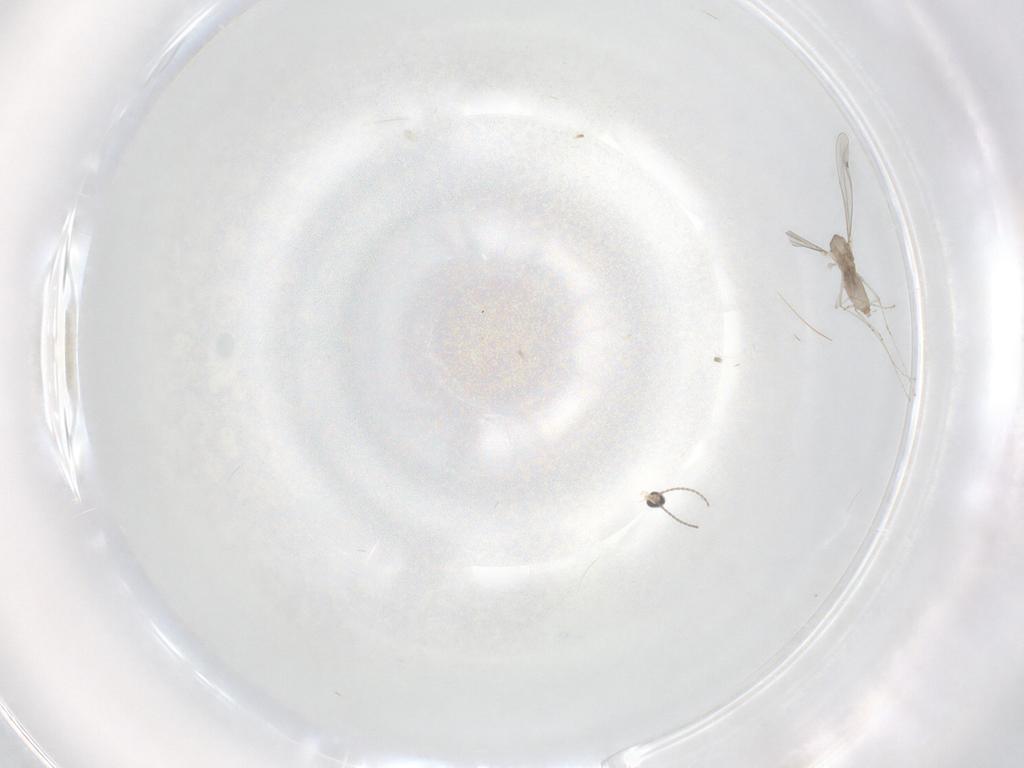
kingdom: Animalia
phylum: Arthropoda
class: Insecta
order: Diptera
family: Cecidomyiidae
